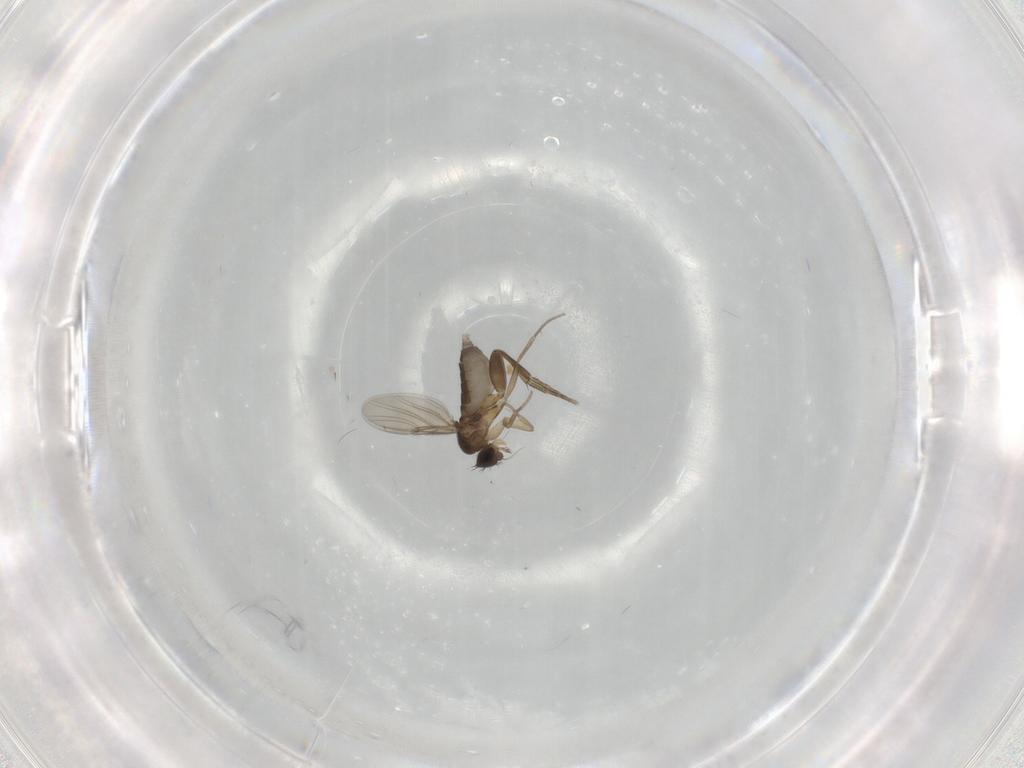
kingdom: Animalia
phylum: Arthropoda
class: Insecta
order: Diptera
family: Phoridae
